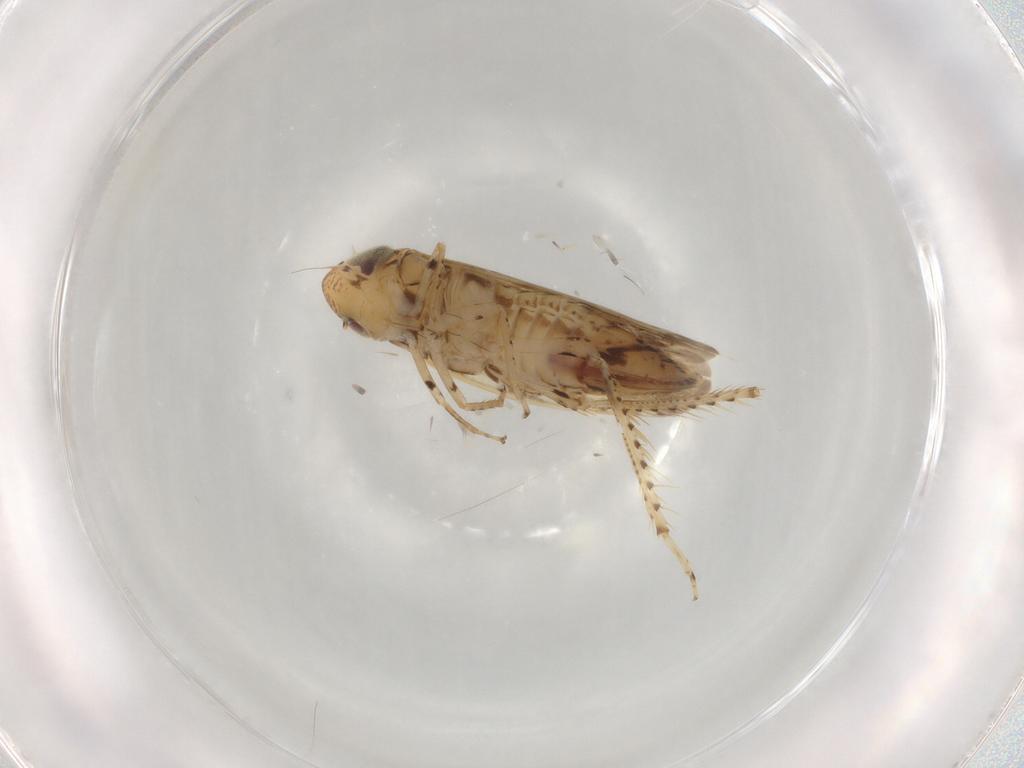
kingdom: Animalia
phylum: Arthropoda
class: Insecta
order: Hemiptera
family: Cicadellidae
